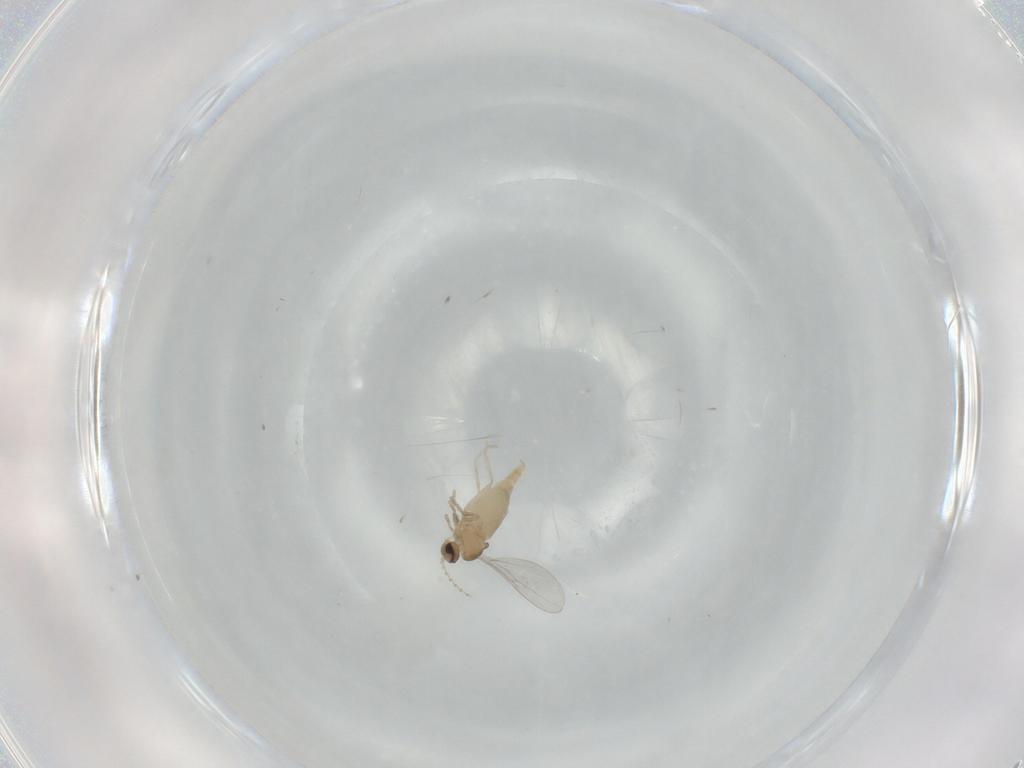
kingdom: Animalia
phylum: Arthropoda
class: Insecta
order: Diptera
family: Cecidomyiidae
